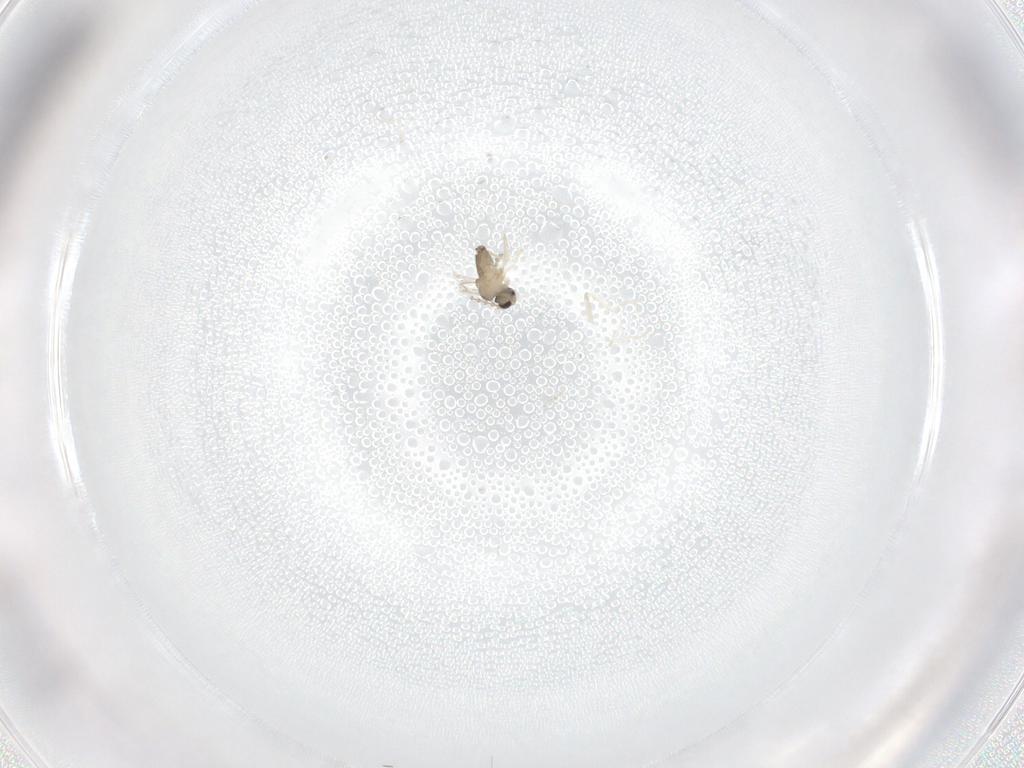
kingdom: Animalia
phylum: Arthropoda
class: Insecta
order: Diptera
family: Cecidomyiidae
